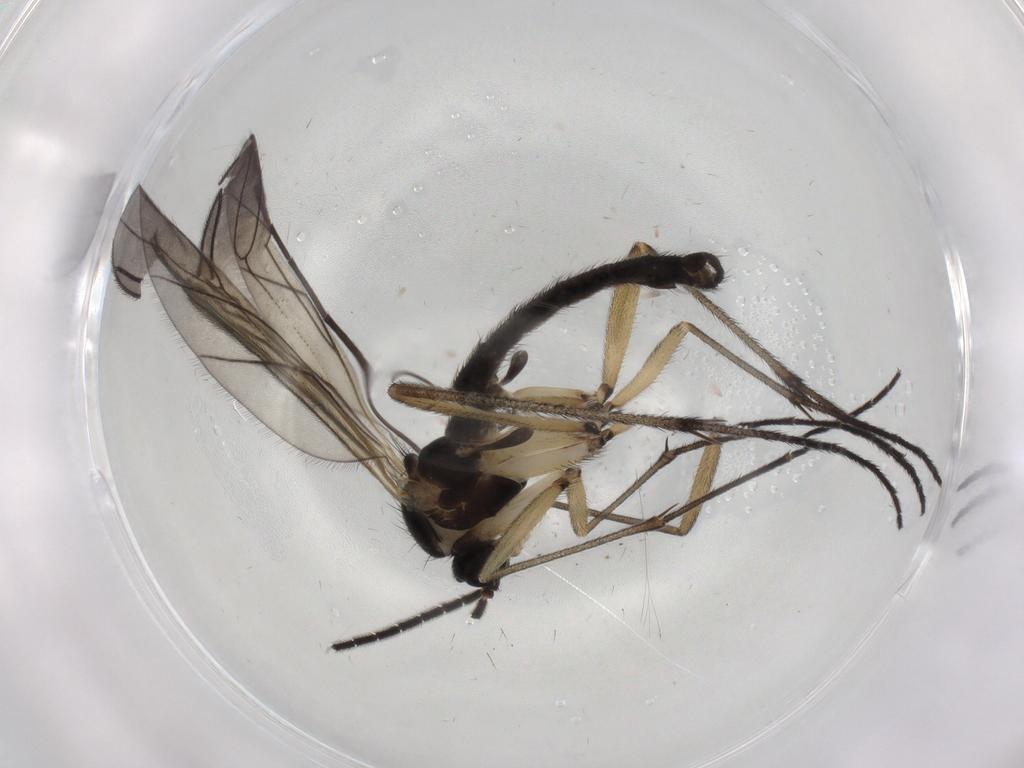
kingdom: Animalia
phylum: Arthropoda
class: Insecta
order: Diptera
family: Sciaridae
